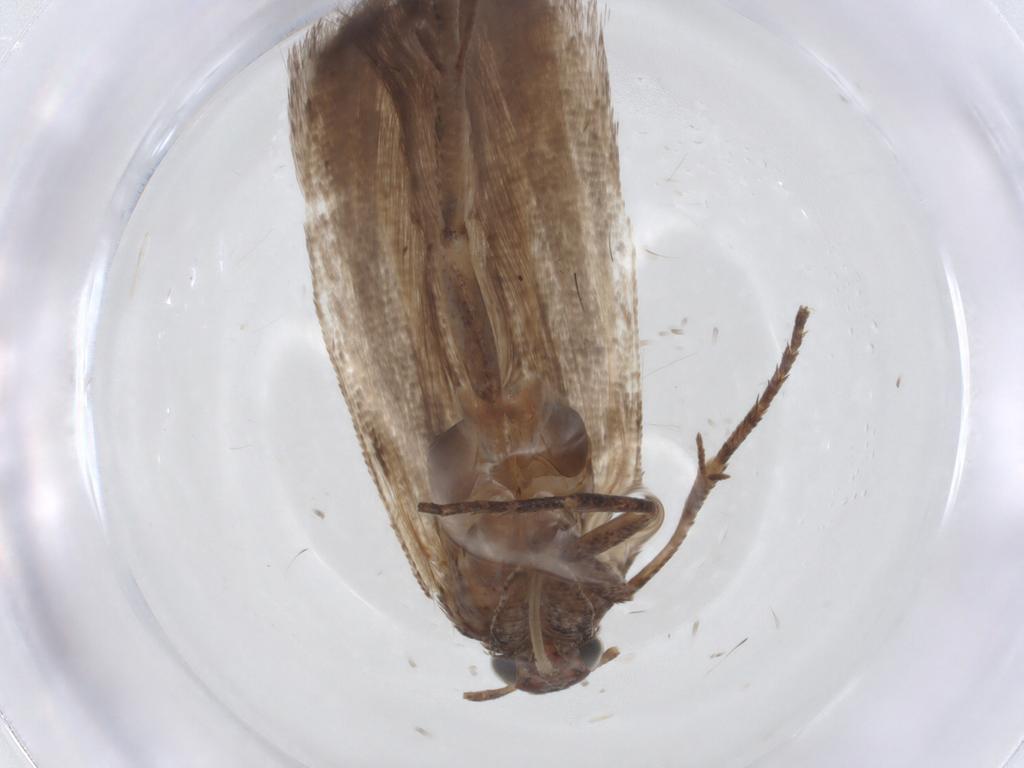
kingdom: Animalia
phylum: Arthropoda
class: Insecta
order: Lepidoptera
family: Gelechiidae
